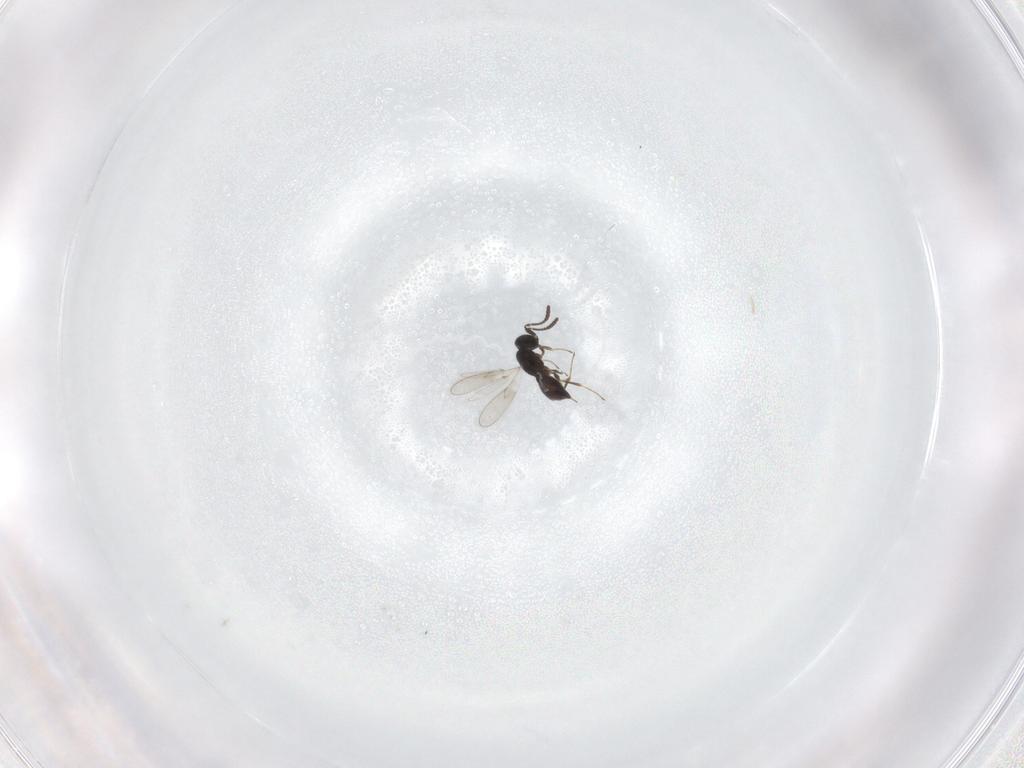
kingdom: Animalia
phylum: Arthropoda
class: Insecta
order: Hymenoptera
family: Scelionidae
